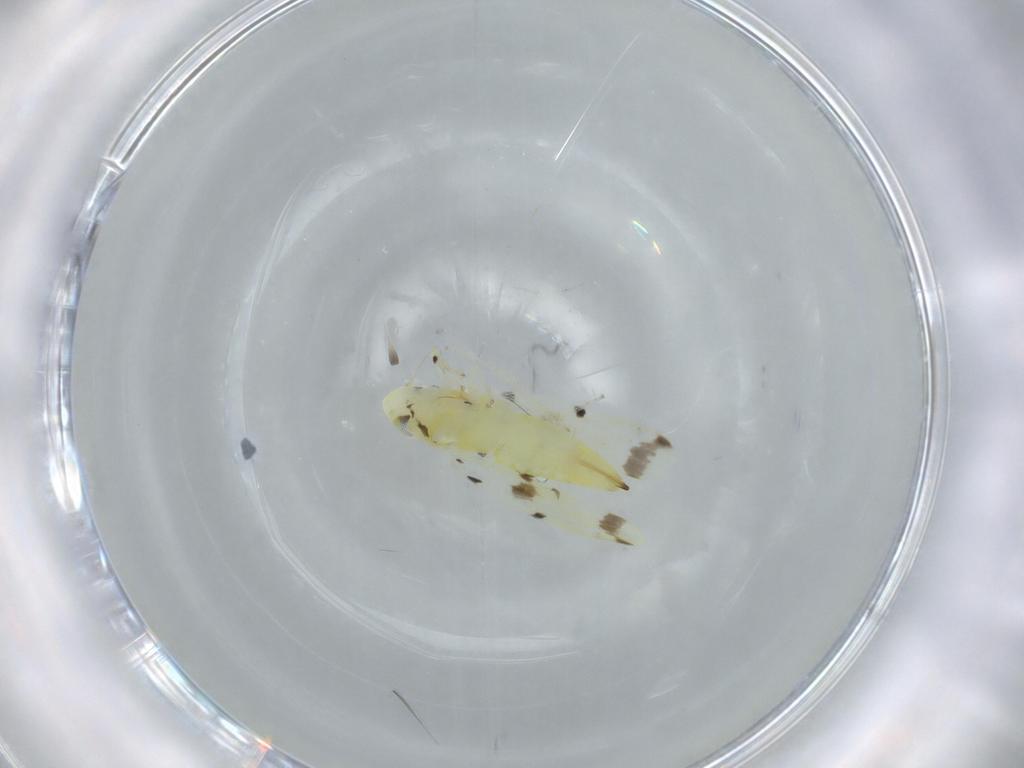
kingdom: Animalia
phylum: Arthropoda
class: Insecta
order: Hemiptera
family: Cicadellidae
